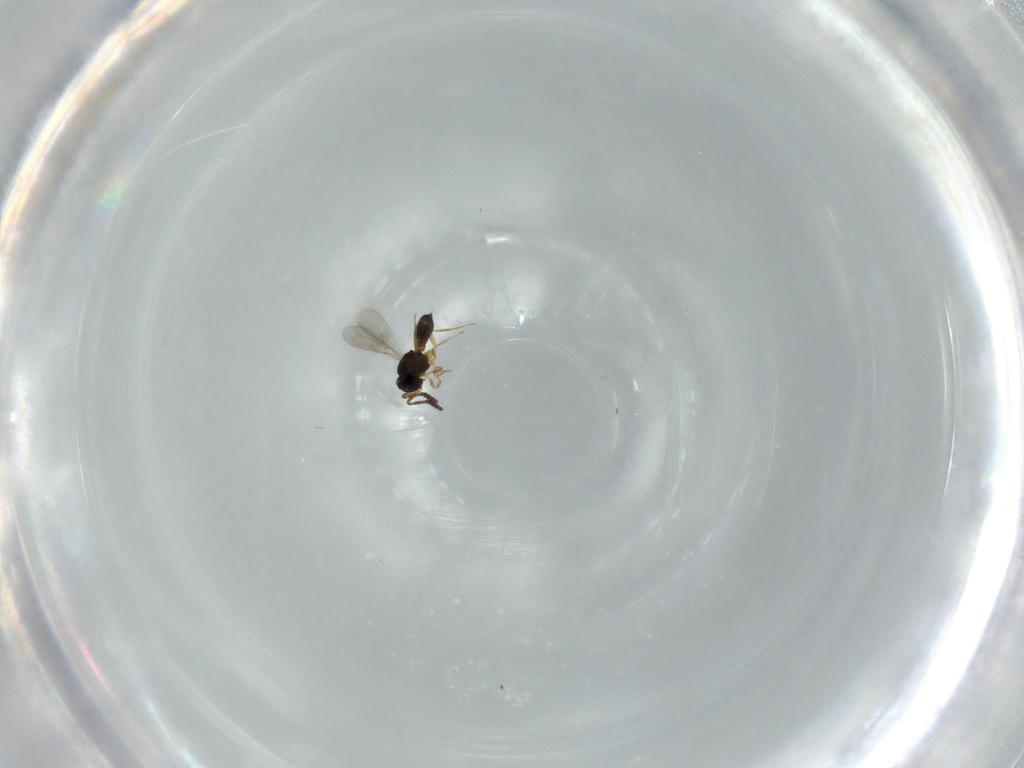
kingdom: Animalia
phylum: Arthropoda
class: Insecta
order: Hymenoptera
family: Scelionidae
